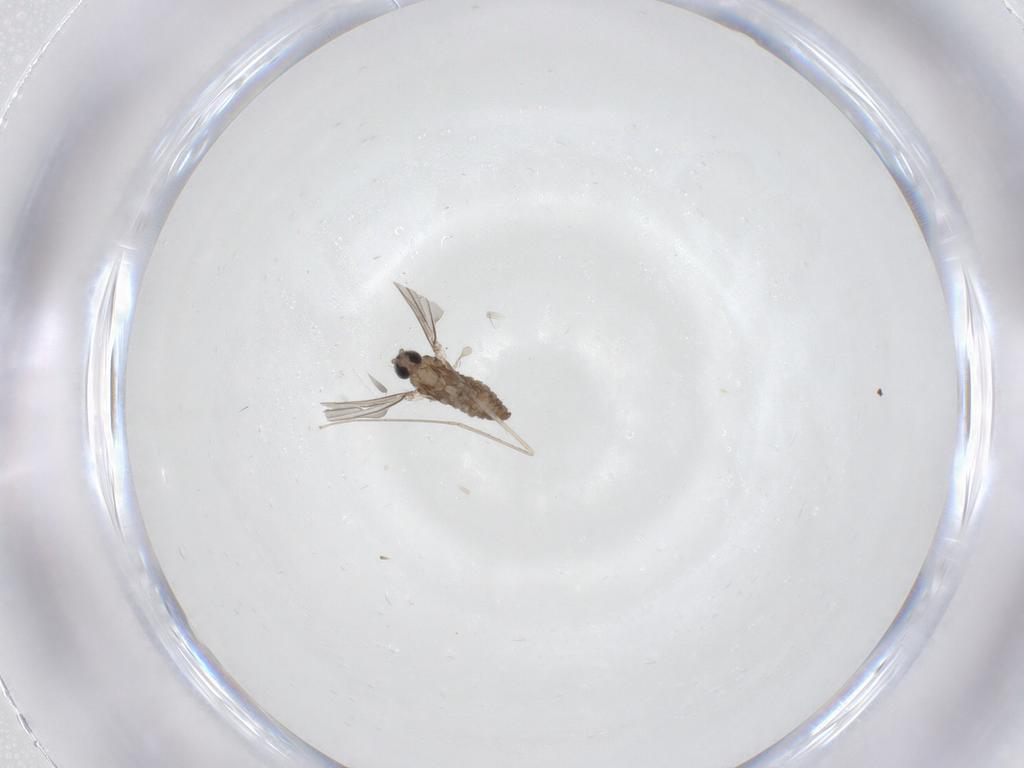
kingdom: Animalia
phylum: Arthropoda
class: Insecta
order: Diptera
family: Cecidomyiidae
